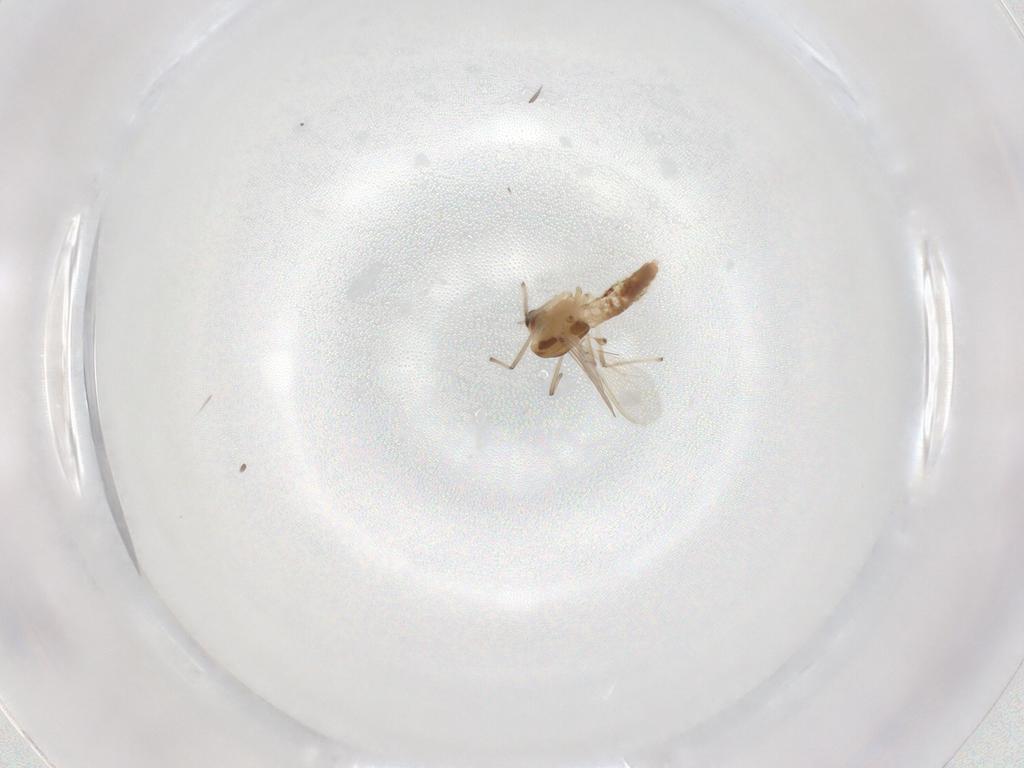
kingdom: Animalia
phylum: Arthropoda
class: Insecta
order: Diptera
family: Chironomidae
